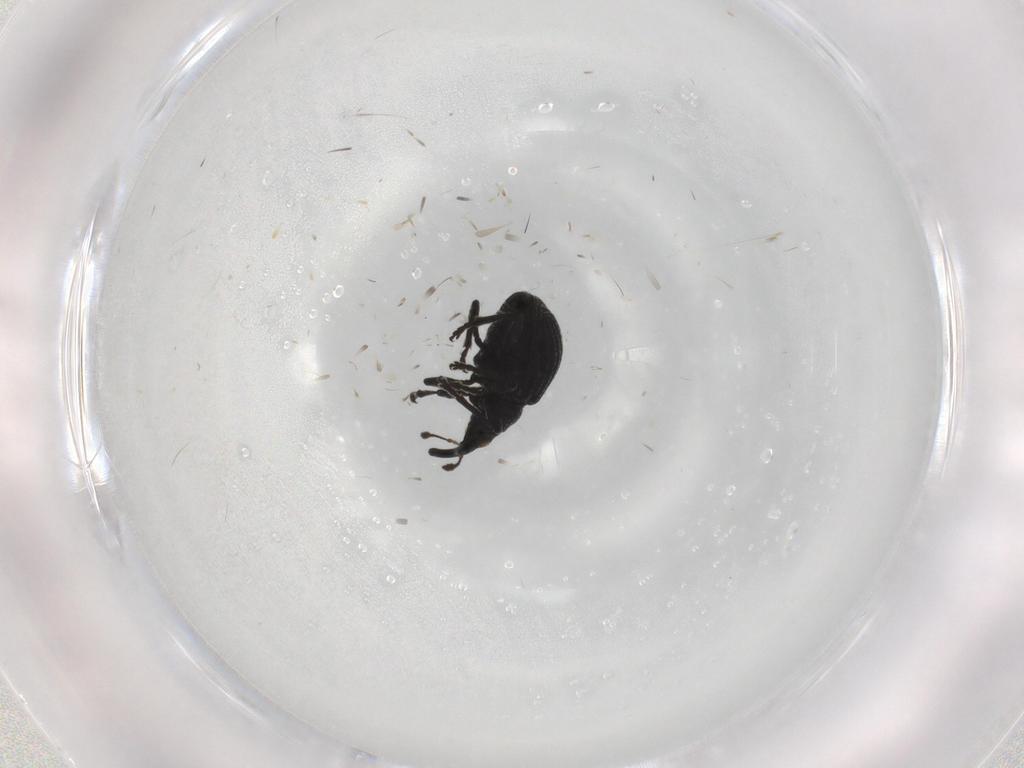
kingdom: Animalia
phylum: Arthropoda
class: Insecta
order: Coleoptera
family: Brentidae
